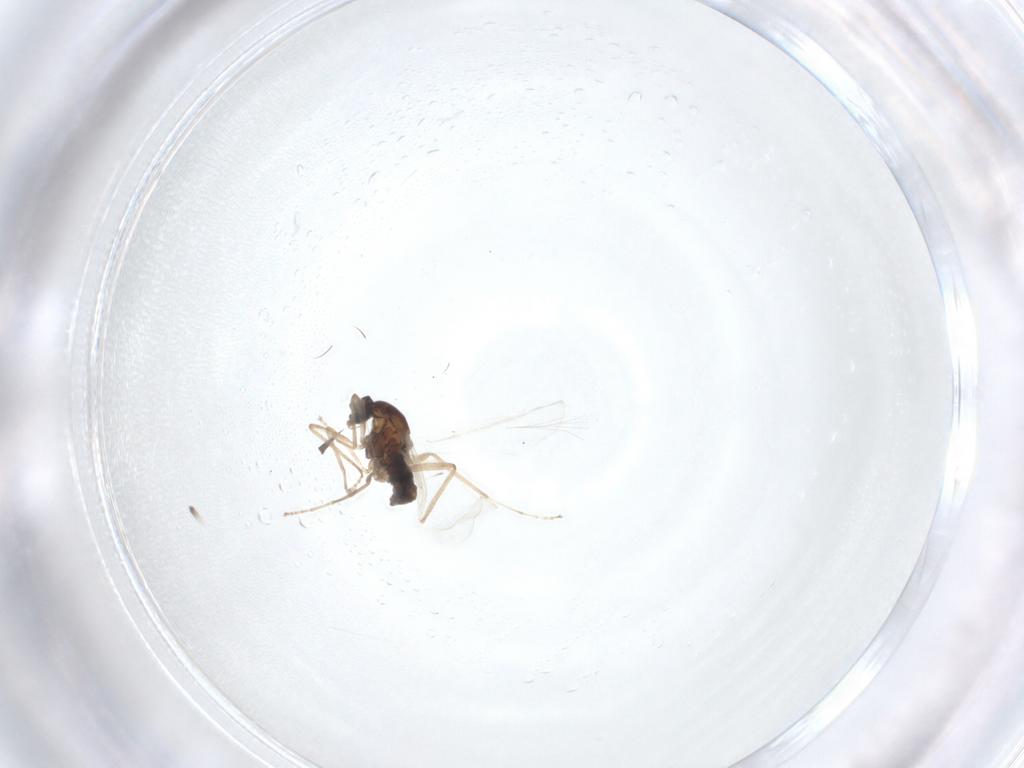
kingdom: Animalia
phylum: Arthropoda
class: Insecta
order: Diptera
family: Cecidomyiidae
